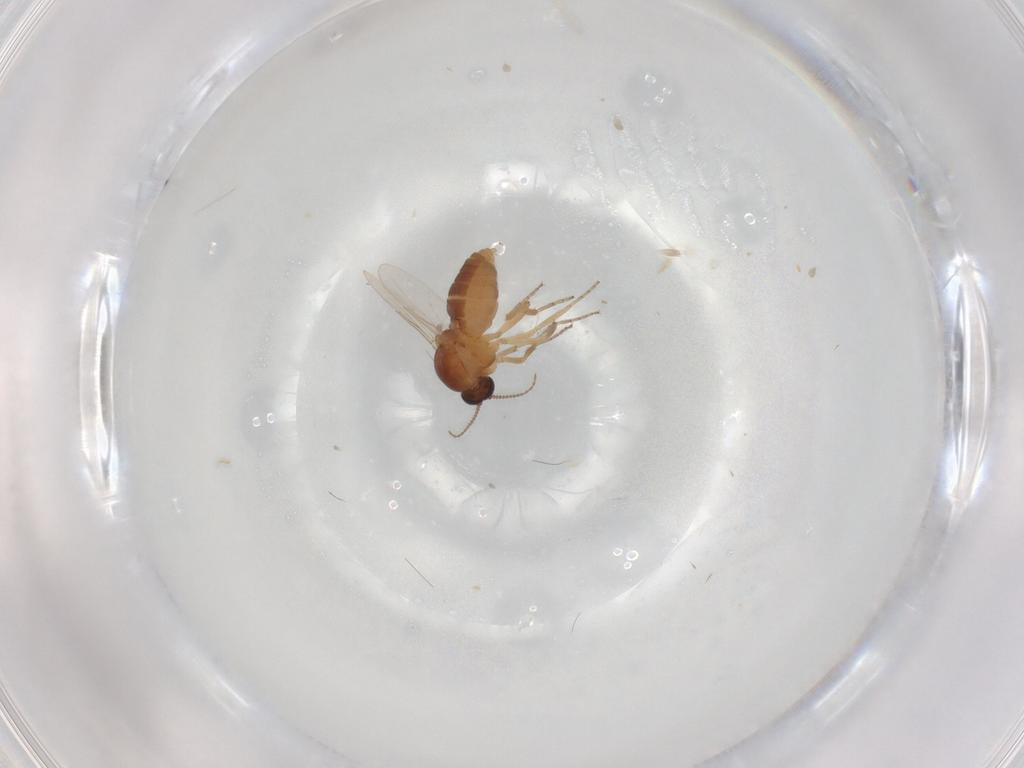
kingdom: Animalia
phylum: Arthropoda
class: Insecta
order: Diptera
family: Ceratopogonidae
